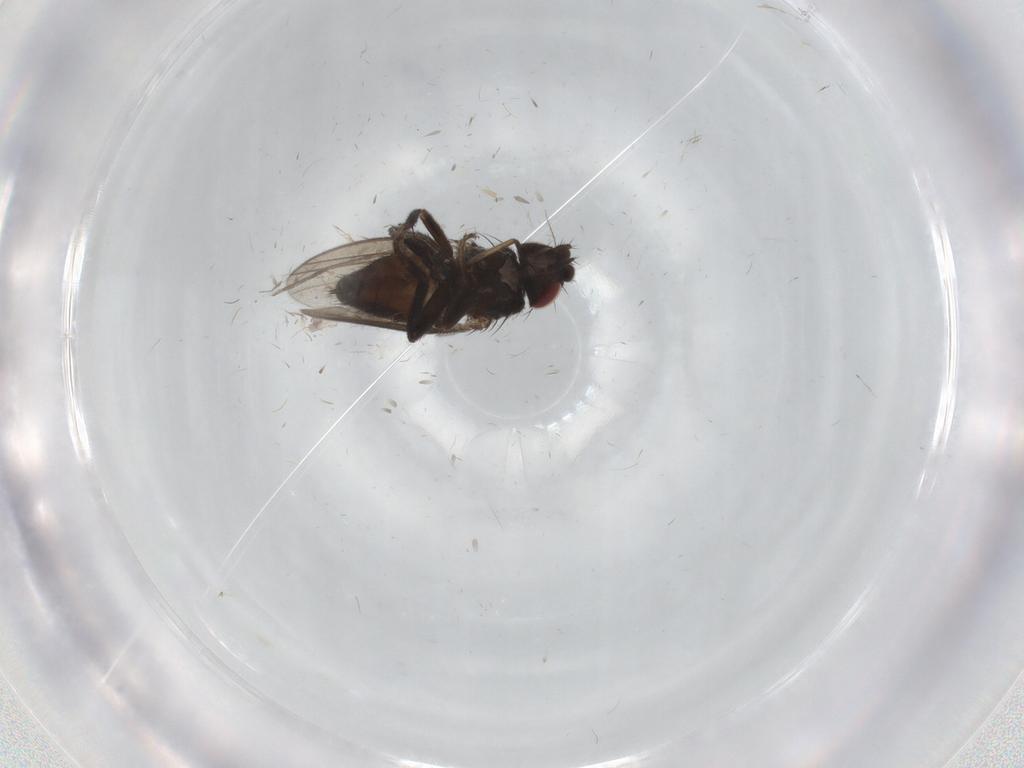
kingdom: Animalia
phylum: Arthropoda
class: Insecta
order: Diptera
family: Milichiidae
